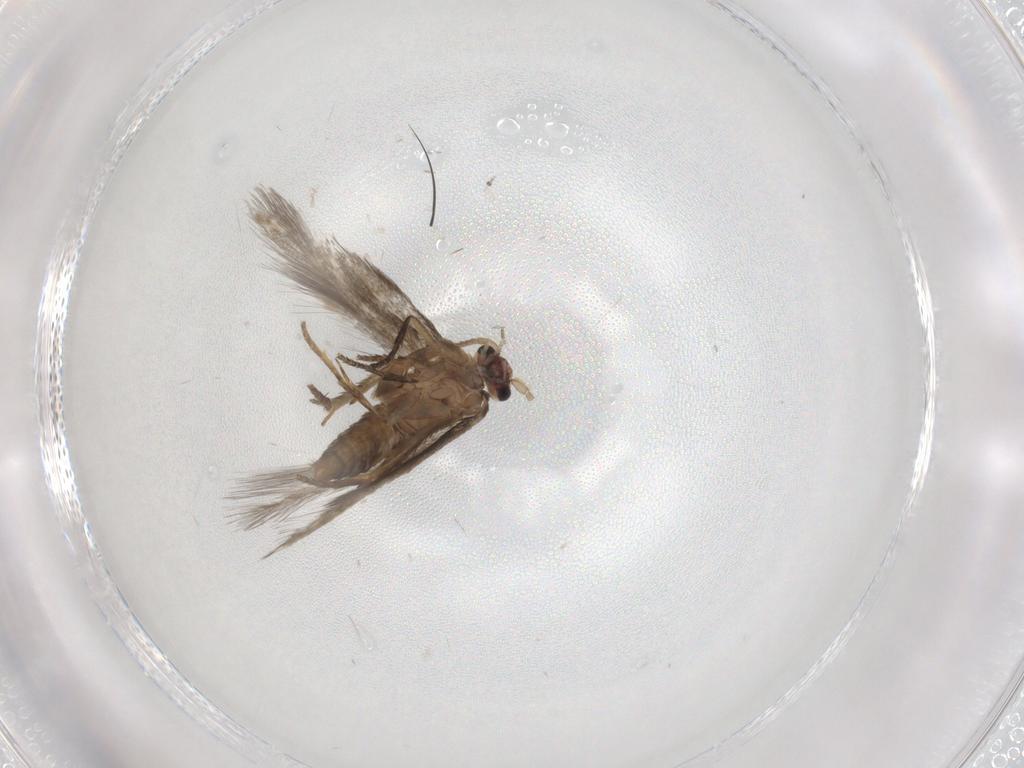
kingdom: Animalia
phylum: Arthropoda
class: Insecta
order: Lepidoptera
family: Nepticulidae
